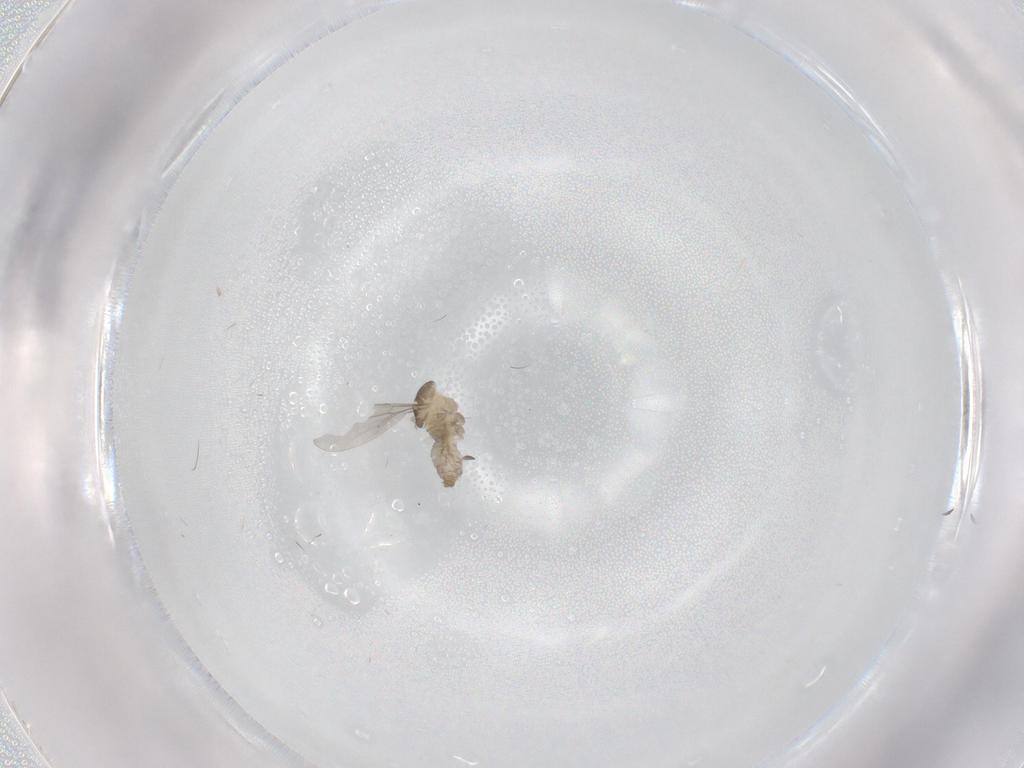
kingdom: Animalia
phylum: Arthropoda
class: Insecta
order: Diptera
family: Cecidomyiidae
